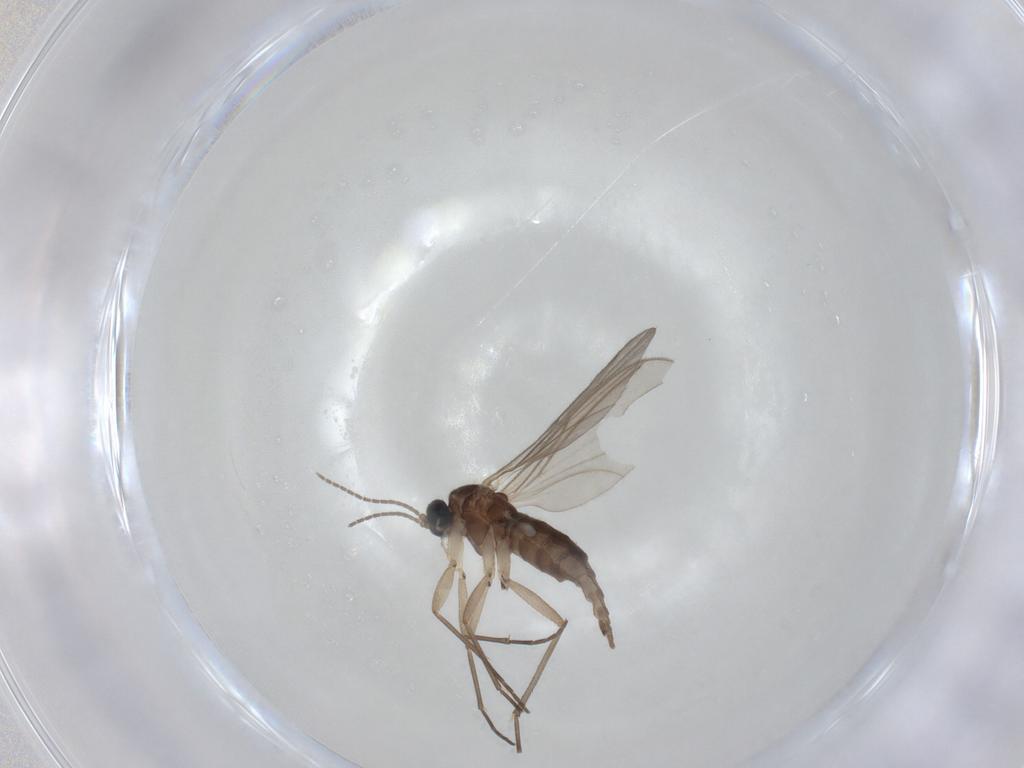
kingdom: Animalia
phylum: Arthropoda
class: Insecta
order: Diptera
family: Sciaridae
